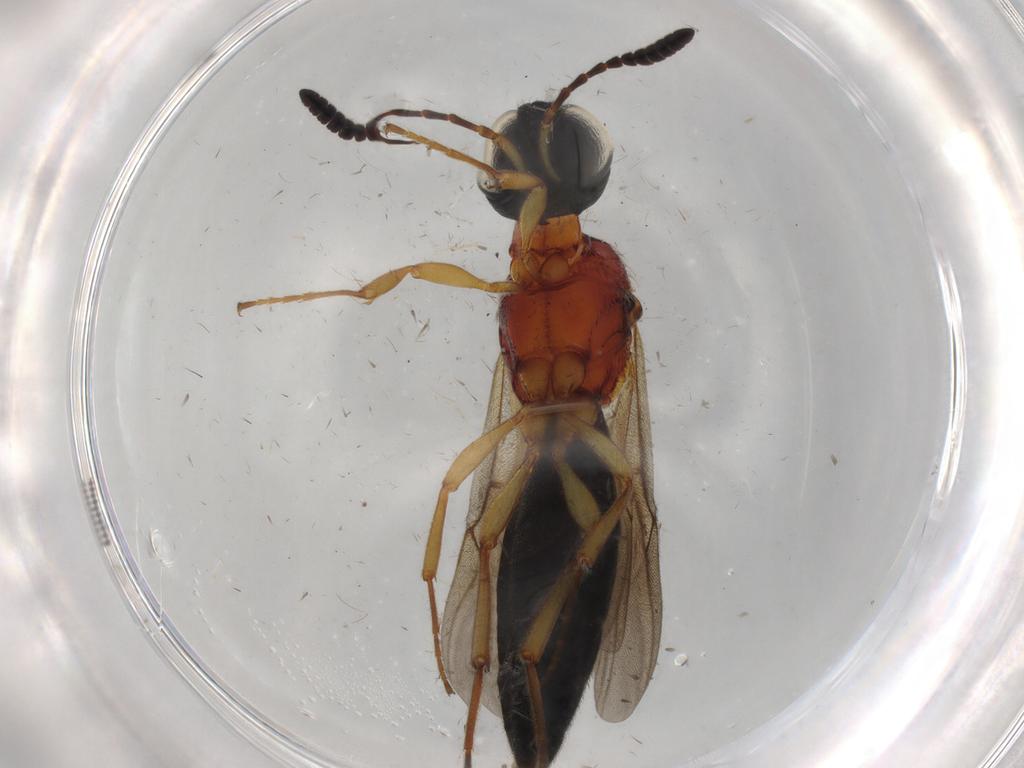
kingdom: Animalia
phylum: Arthropoda
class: Insecta
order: Hymenoptera
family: Scelionidae
